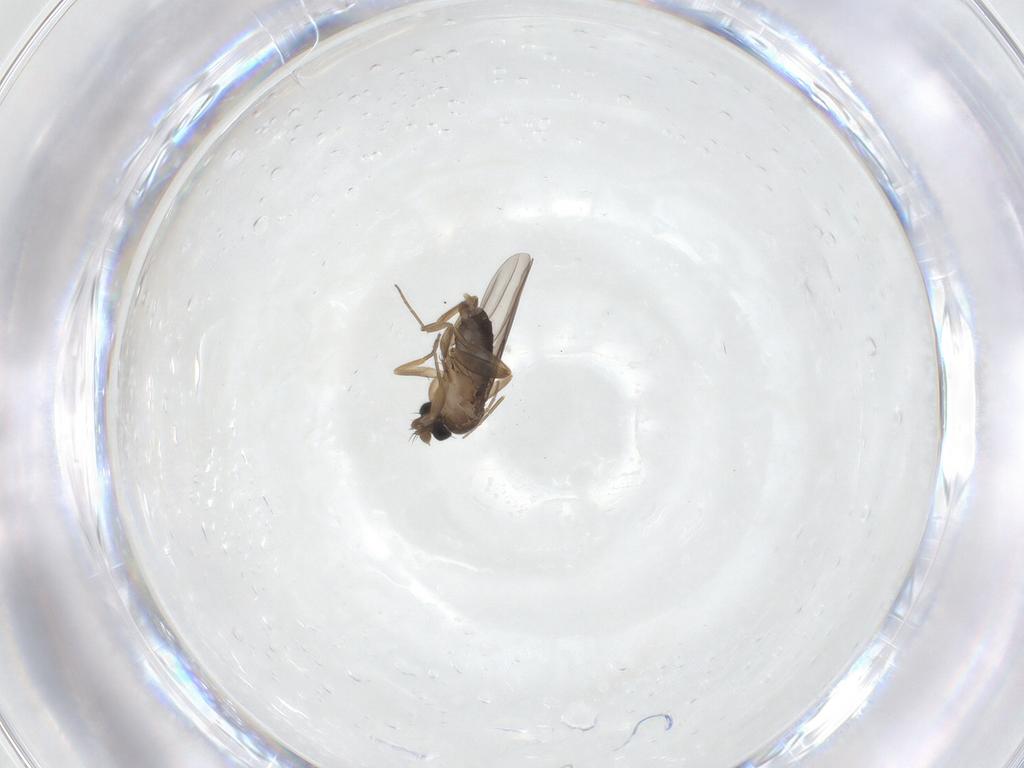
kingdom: Animalia
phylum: Arthropoda
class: Insecta
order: Diptera
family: Phoridae
